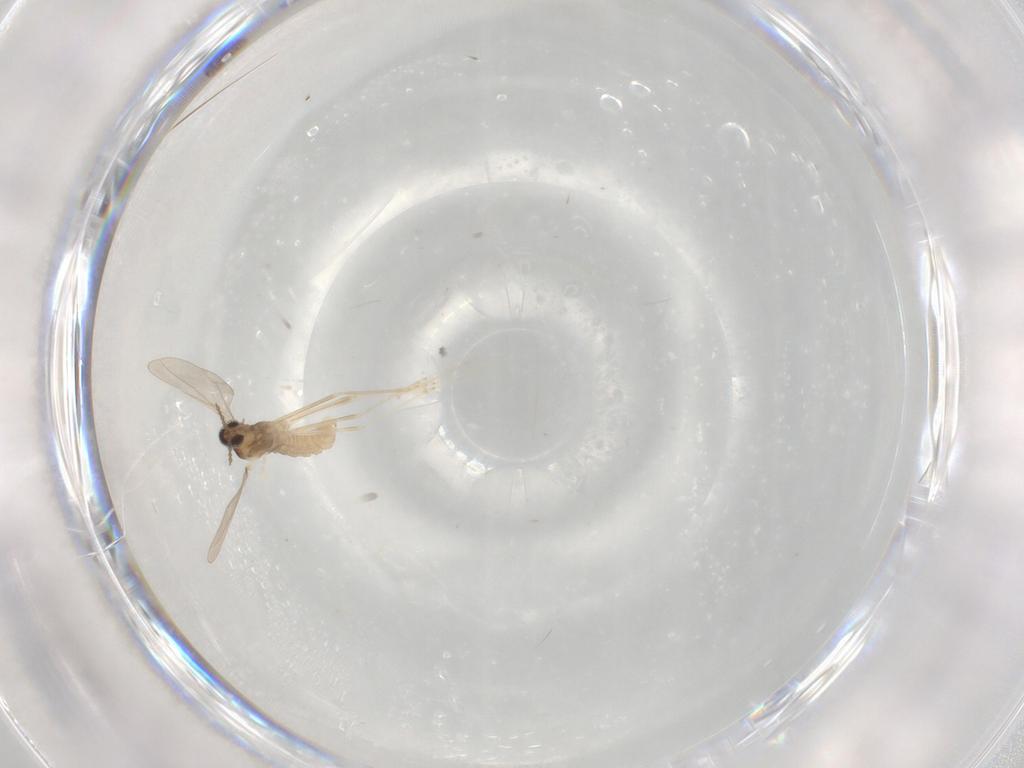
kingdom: Animalia
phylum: Arthropoda
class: Insecta
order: Diptera
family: Cecidomyiidae
